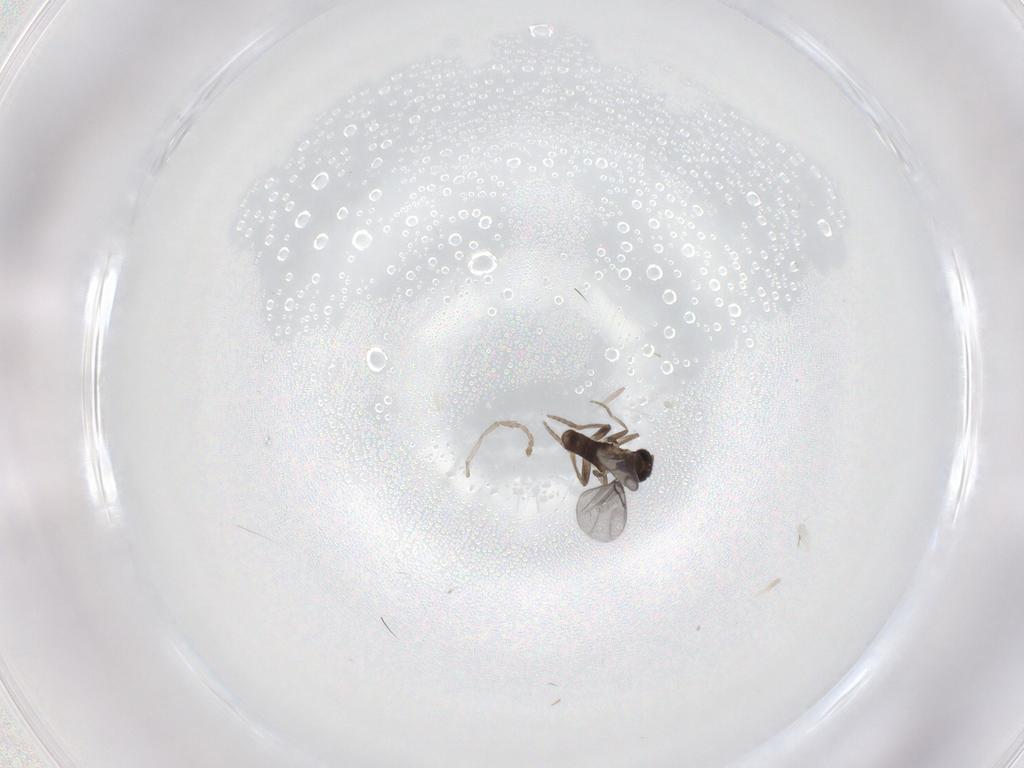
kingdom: Animalia
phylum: Arthropoda
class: Insecta
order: Diptera
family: Psychodidae
